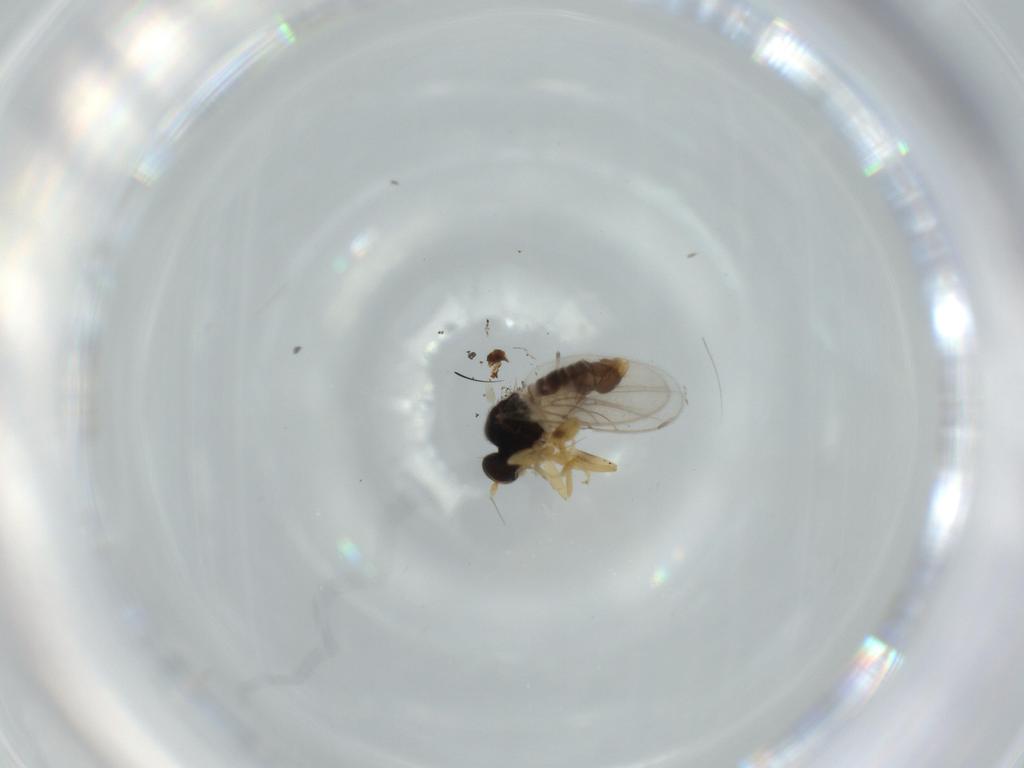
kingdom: Animalia
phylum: Arthropoda
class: Insecta
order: Diptera
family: Hybotidae
